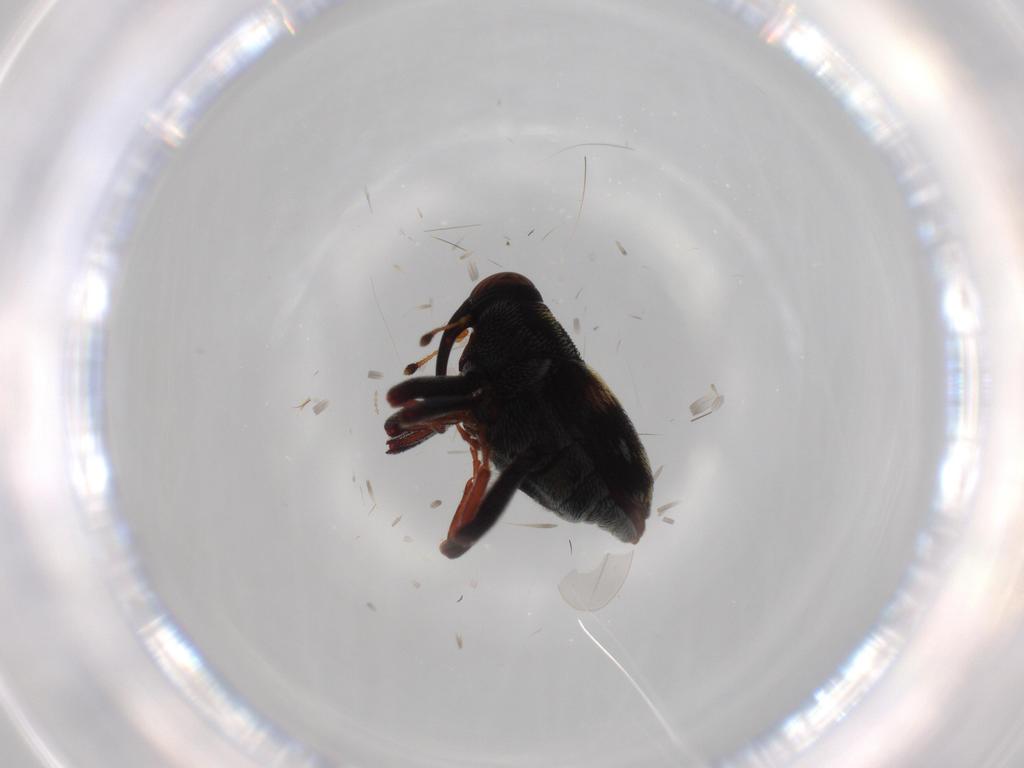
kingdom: Animalia
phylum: Arthropoda
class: Insecta
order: Coleoptera
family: Curculionidae
